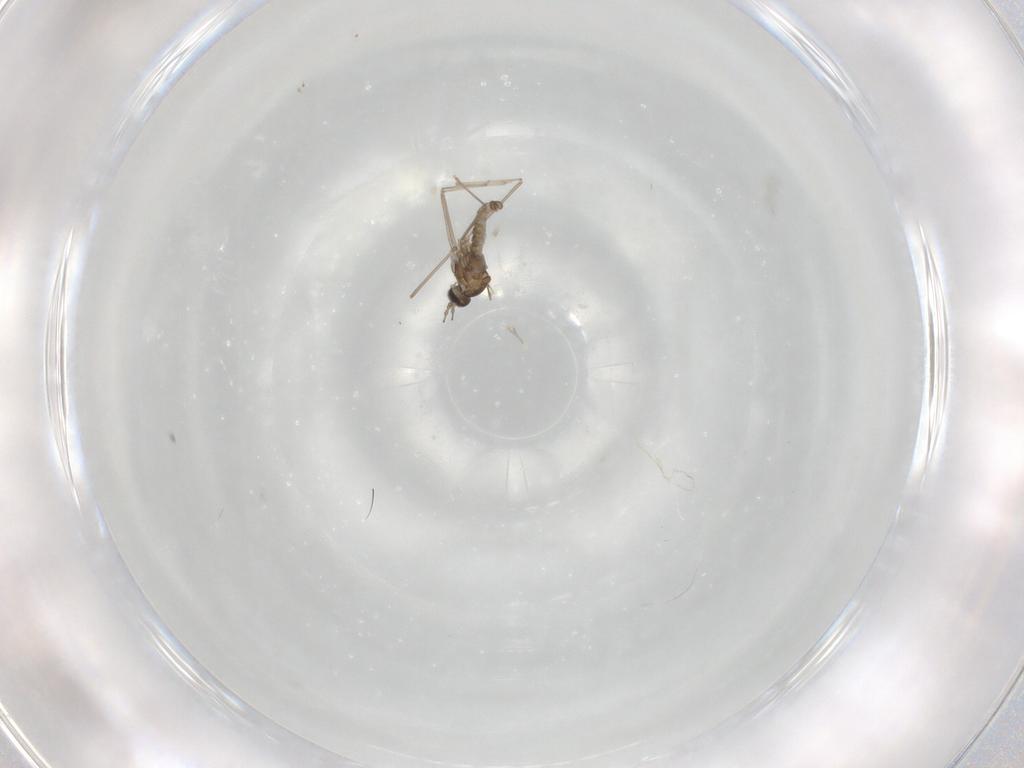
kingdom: Animalia
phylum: Arthropoda
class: Insecta
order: Diptera
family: Cecidomyiidae
